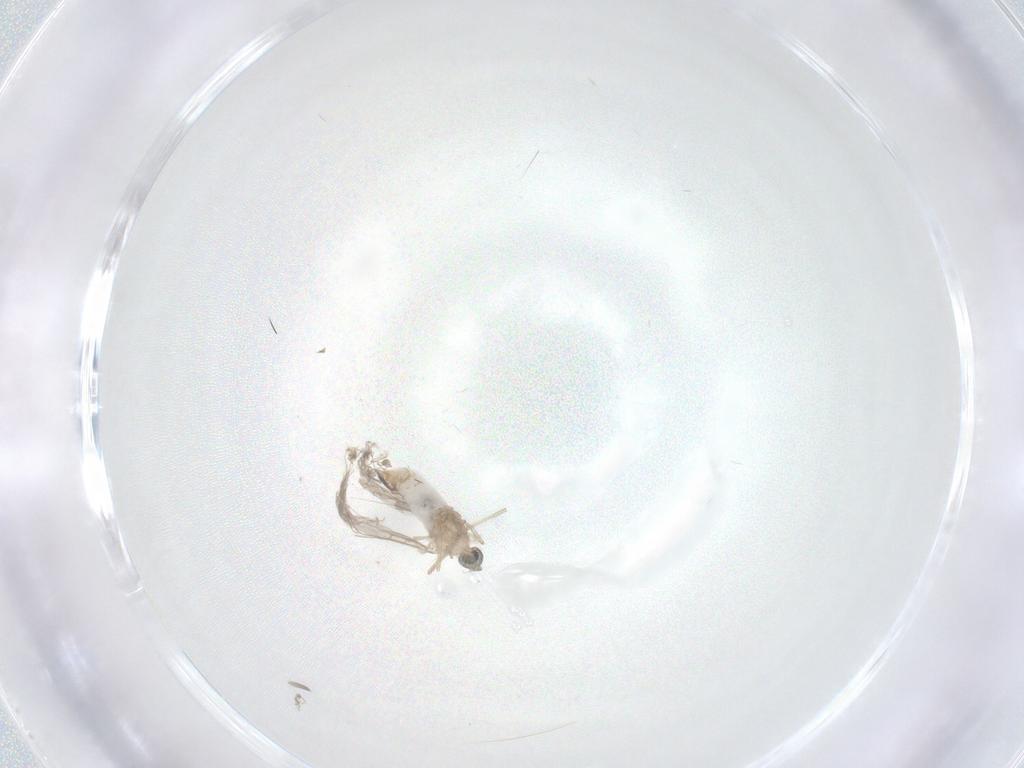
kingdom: Animalia
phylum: Arthropoda
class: Insecta
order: Diptera
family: Cecidomyiidae
